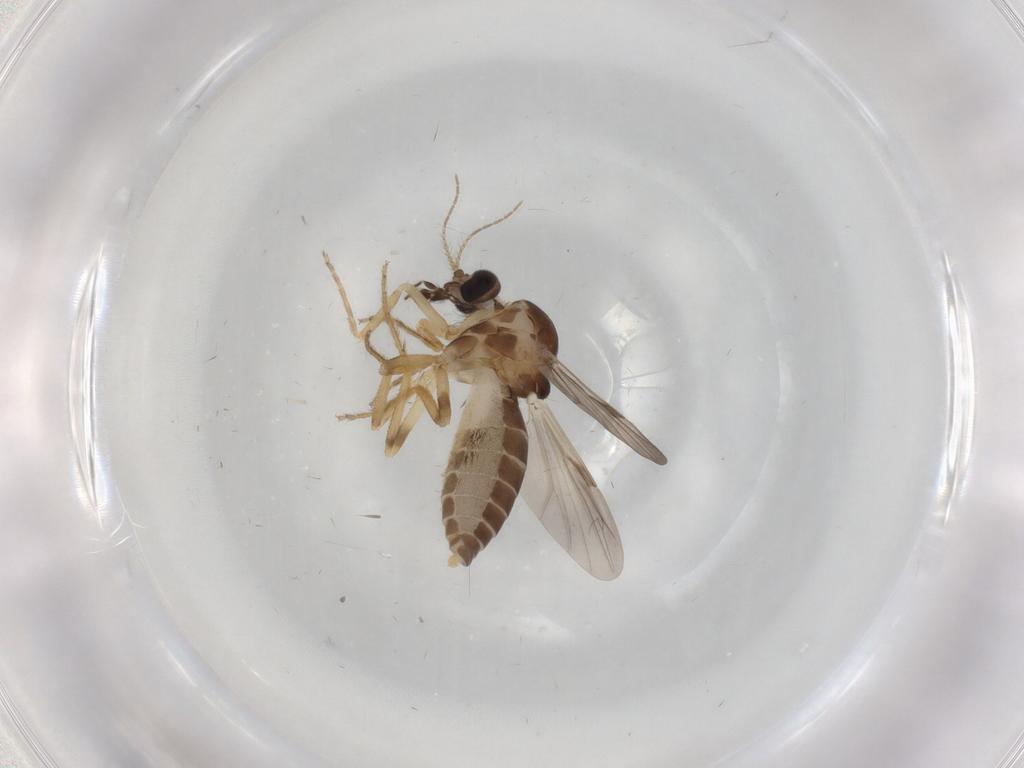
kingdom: Animalia
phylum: Arthropoda
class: Insecta
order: Diptera
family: Ceratopogonidae
